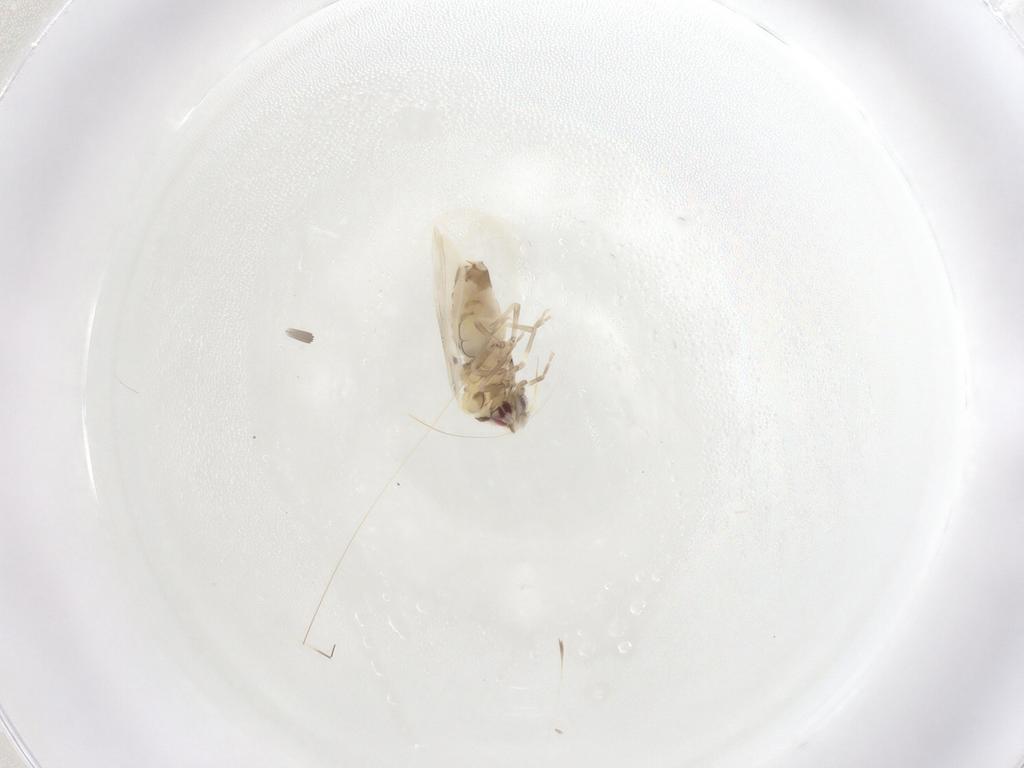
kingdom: Animalia
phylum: Arthropoda
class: Insecta
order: Hemiptera
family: Aleyrodidae
